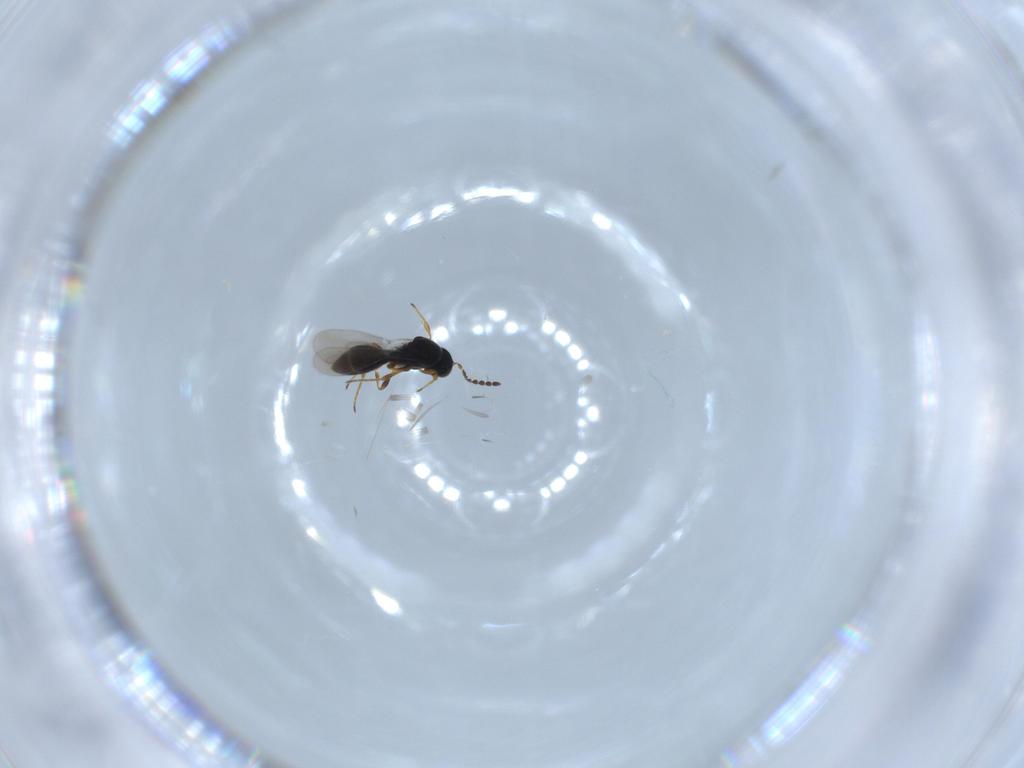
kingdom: Animalia
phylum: Arthropoda
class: Insecta
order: Hymenoptera
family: Platygastridae
